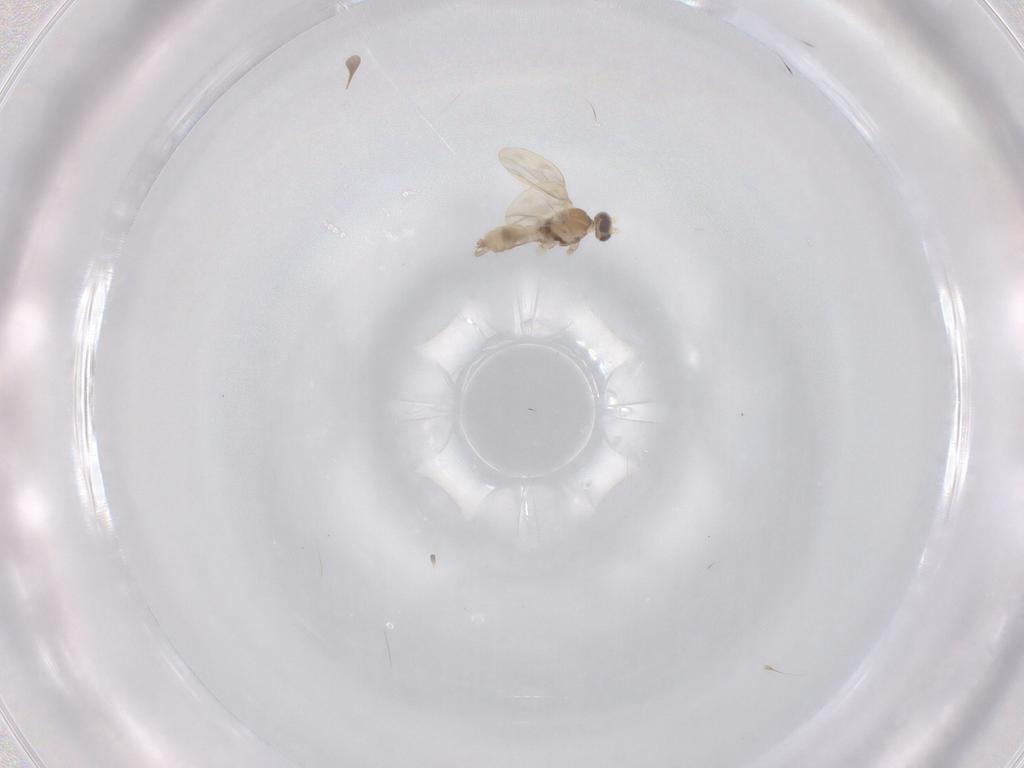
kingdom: Animalia
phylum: Arthropoda
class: Insecta
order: Diptera
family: Cecidomyiidae
